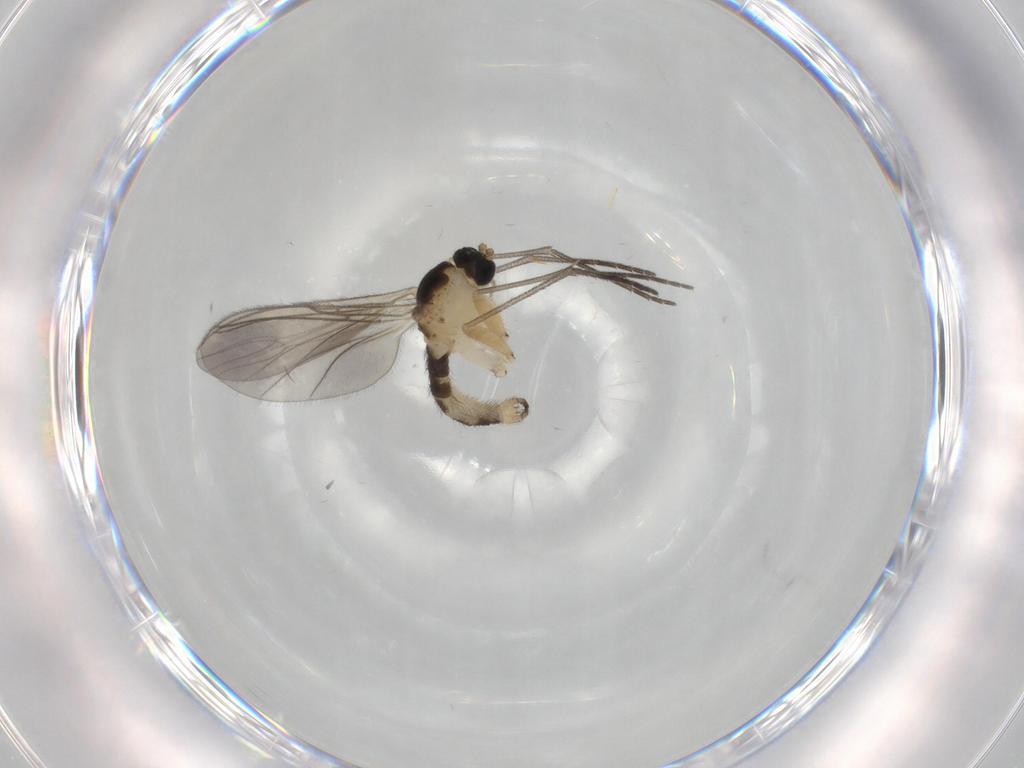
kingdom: Animalia
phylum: Arthropoda
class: Insecta
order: Diptera
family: Sciaridae
